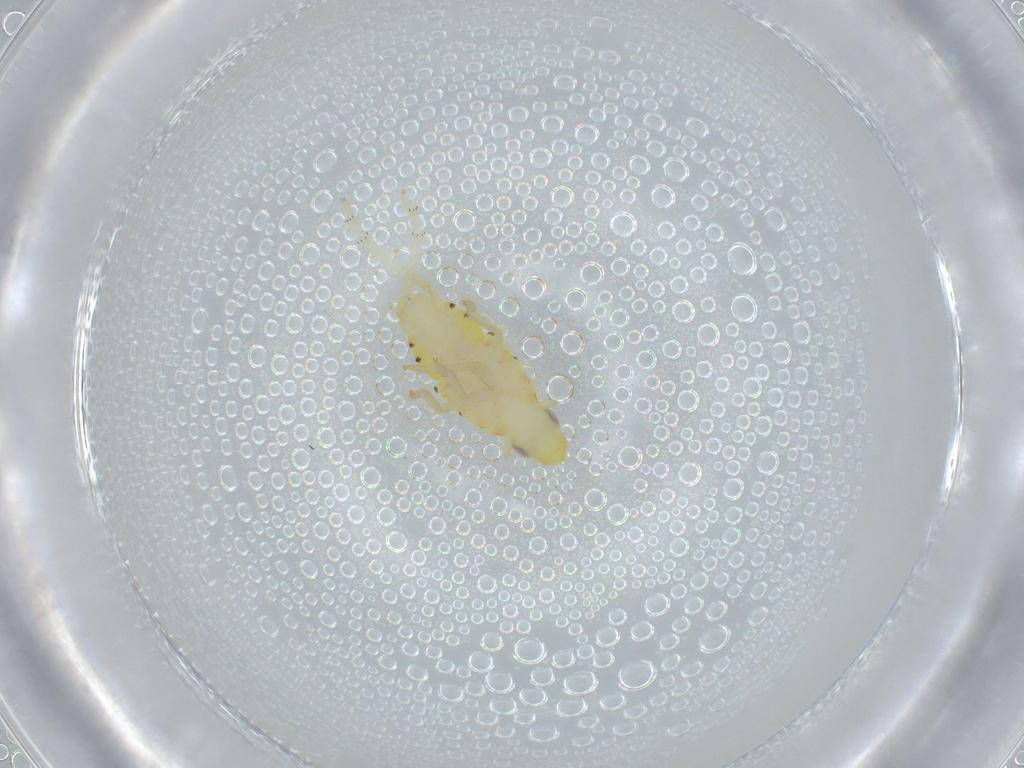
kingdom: Animalia
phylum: Arthropoda
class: Insecta
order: Hemiptera
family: Tropiduchidae
